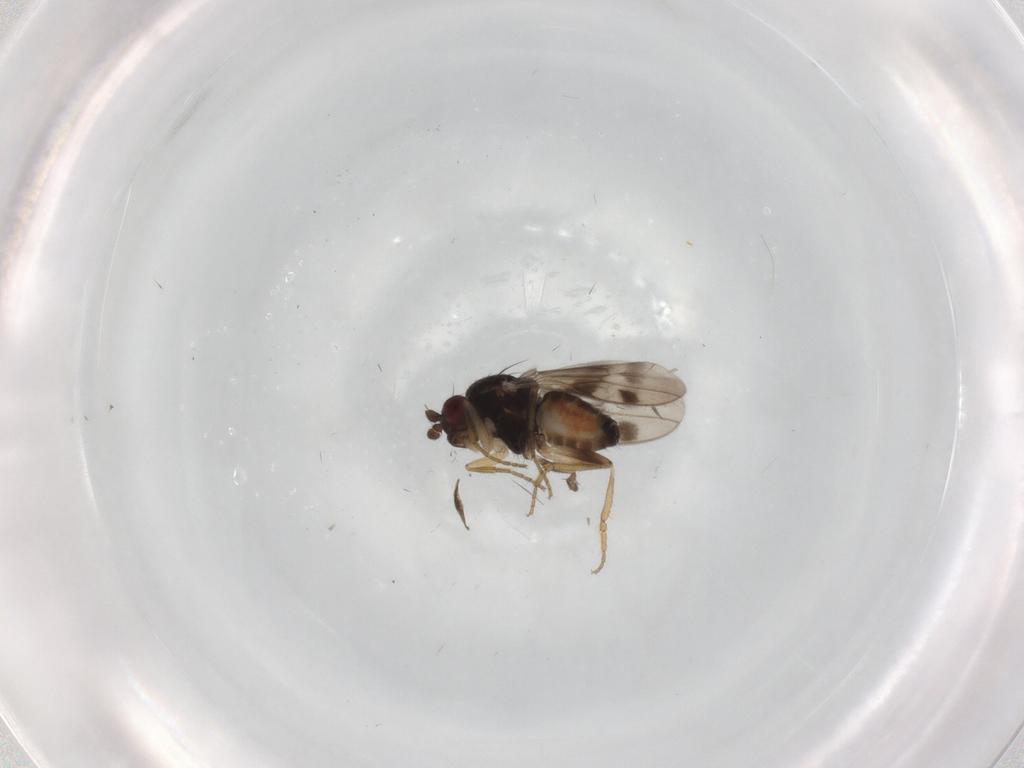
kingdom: Animalia
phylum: Arthropoda
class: Insecta
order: Diptera
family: Sphaeroceridae
